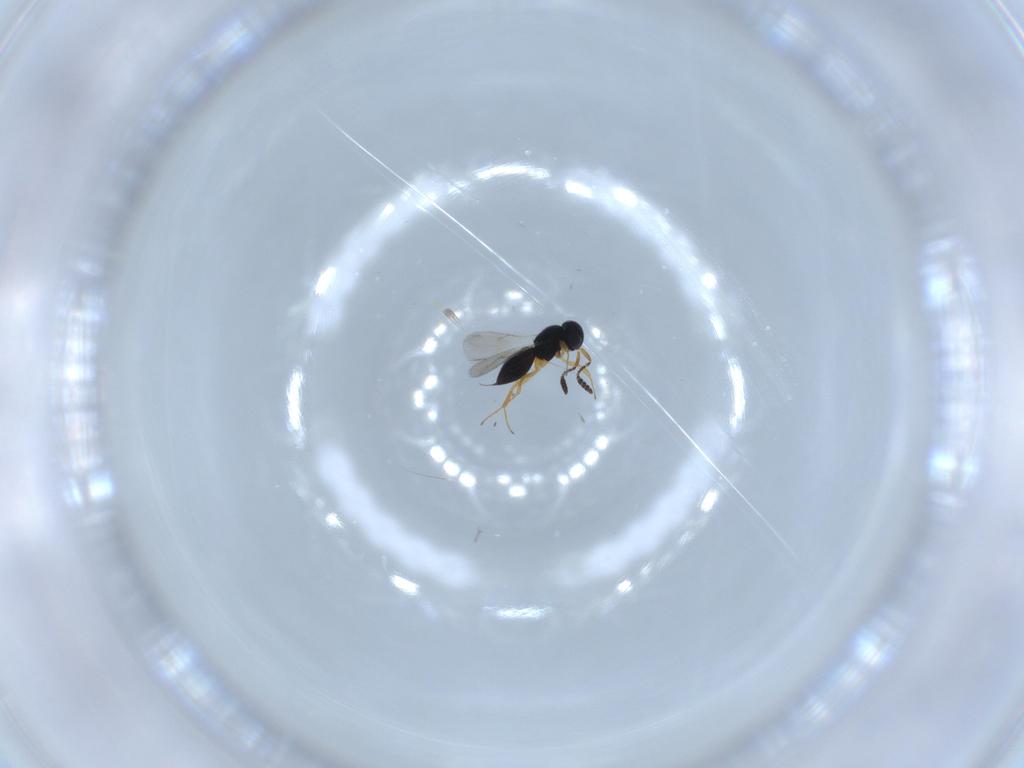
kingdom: Animalia
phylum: Arthropoda
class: Insecta
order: Hymenoptera
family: Scelionidae
